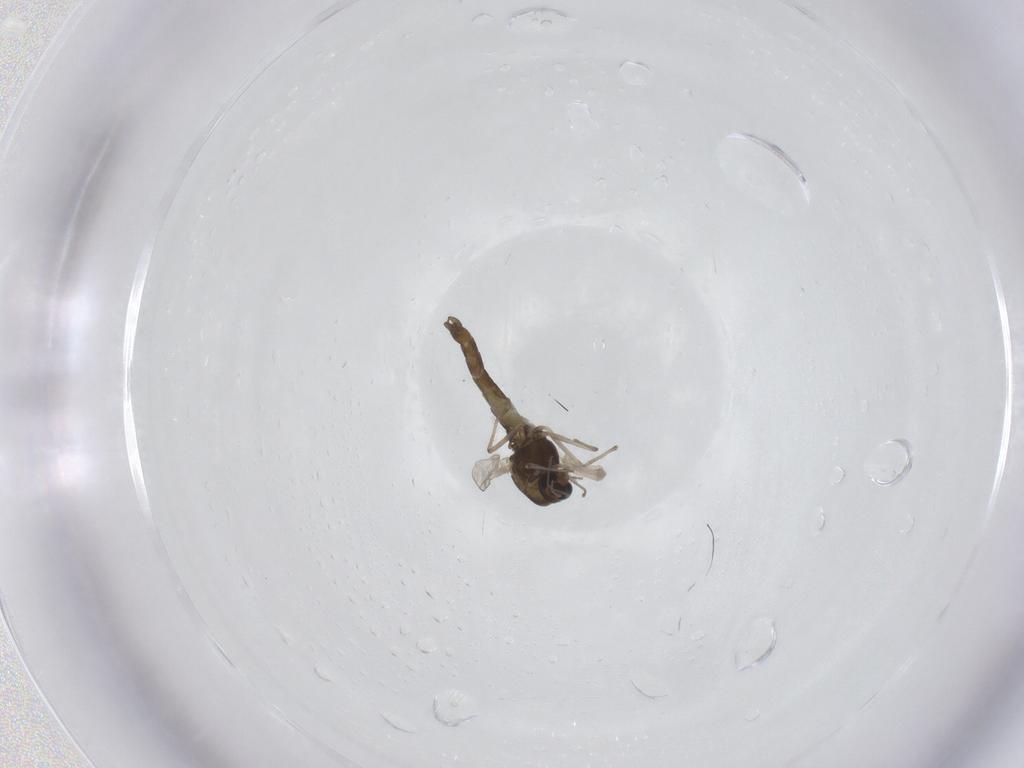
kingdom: Animalia
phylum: Arthropoda
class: Insecta
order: Diptera
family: Chironomidae
